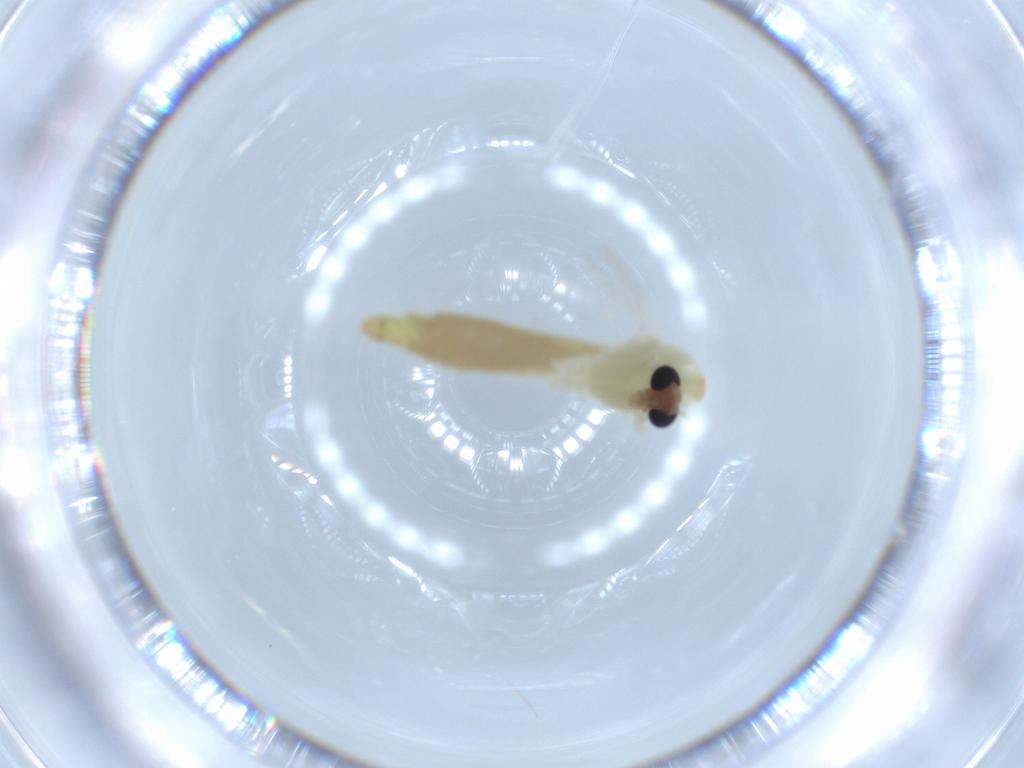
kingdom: Animalia
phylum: Arthropoda
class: Insecta
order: Diptera
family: Chironomidae
